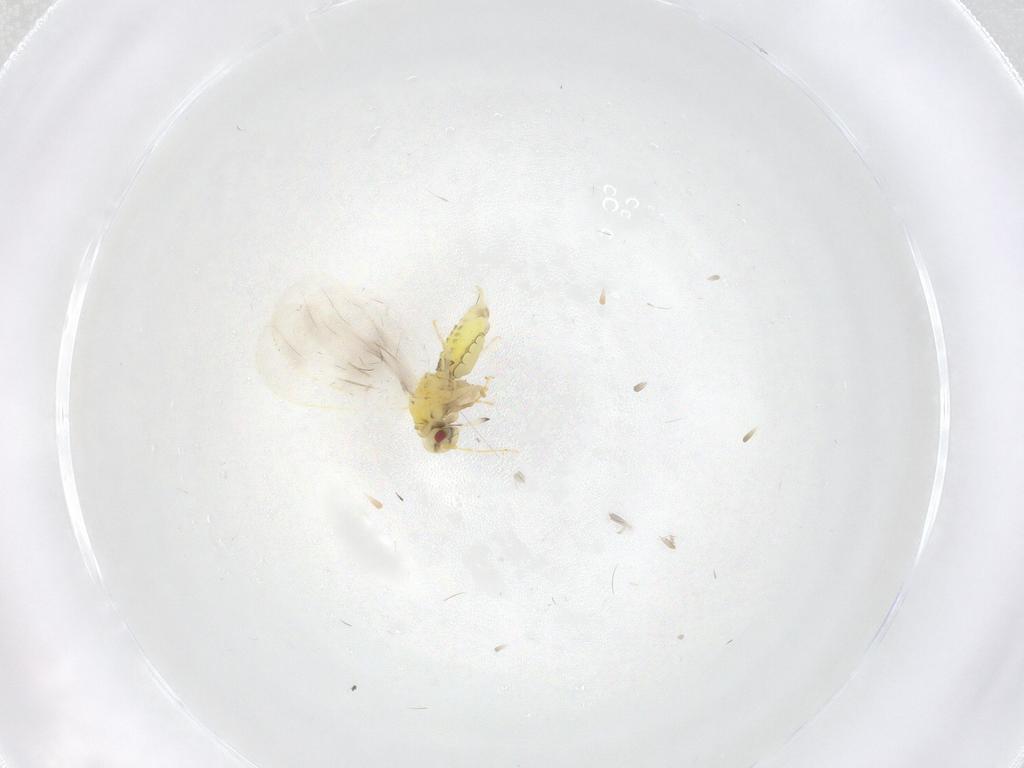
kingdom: Animalia
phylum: Arthropoda
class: Insecta
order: Hemiptera
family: Aleyrodidae
